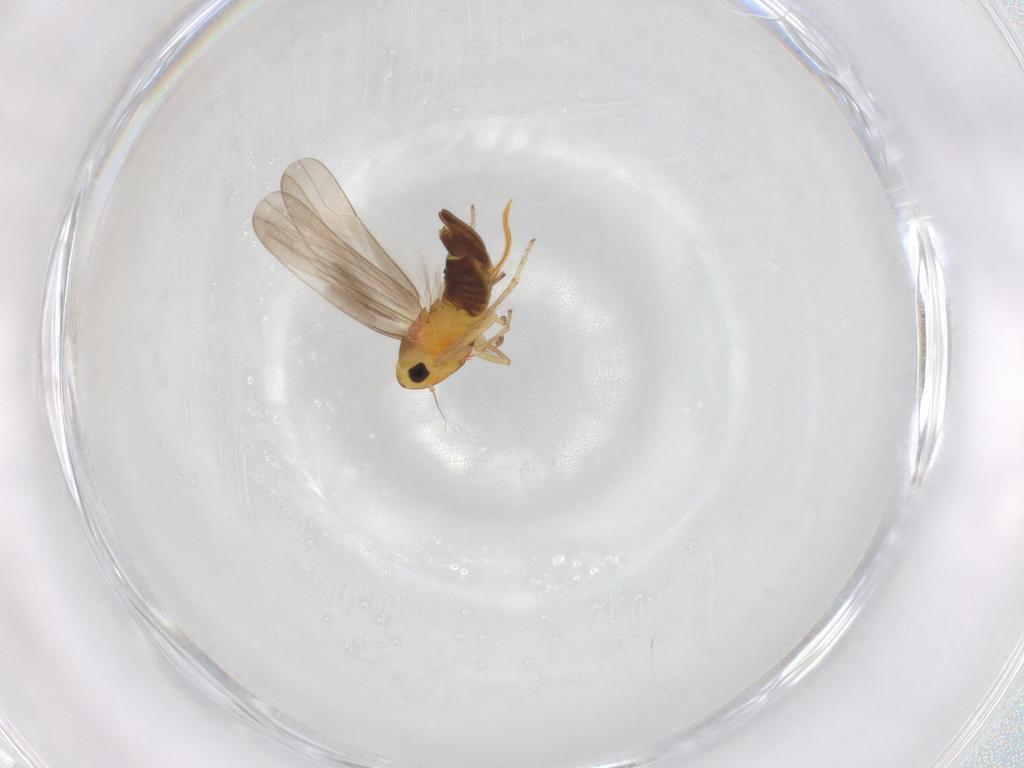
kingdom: Animalia
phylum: Arthropoda
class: Insecta
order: Hemiptera
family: Cicadellidae
